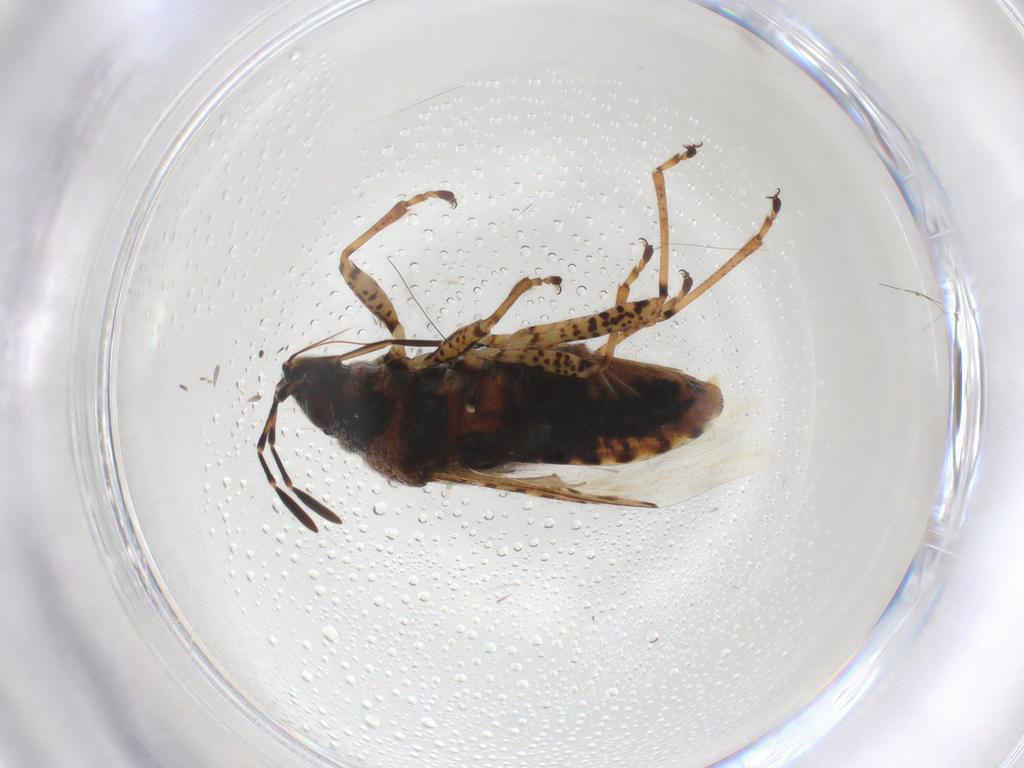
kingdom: Animalia
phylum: Arthropoda
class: Insecta
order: Hemiptera
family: Lygaeidae
